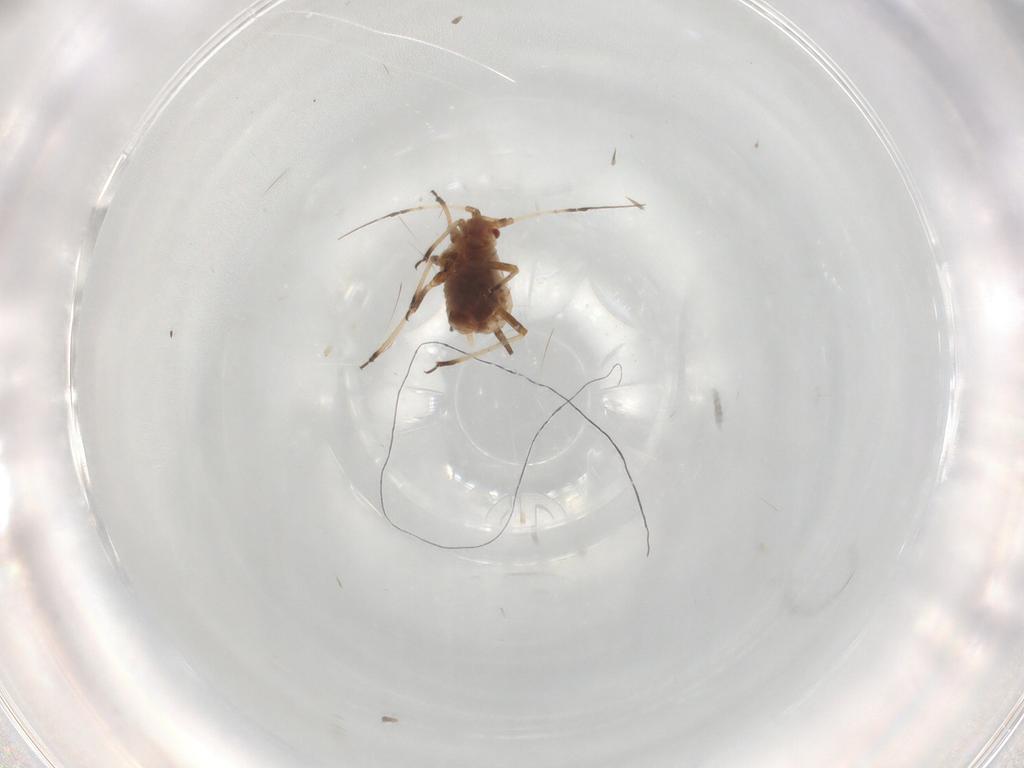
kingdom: Animalia
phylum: Arthropoda
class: Insecta
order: Hemiptera
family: Aphididae
